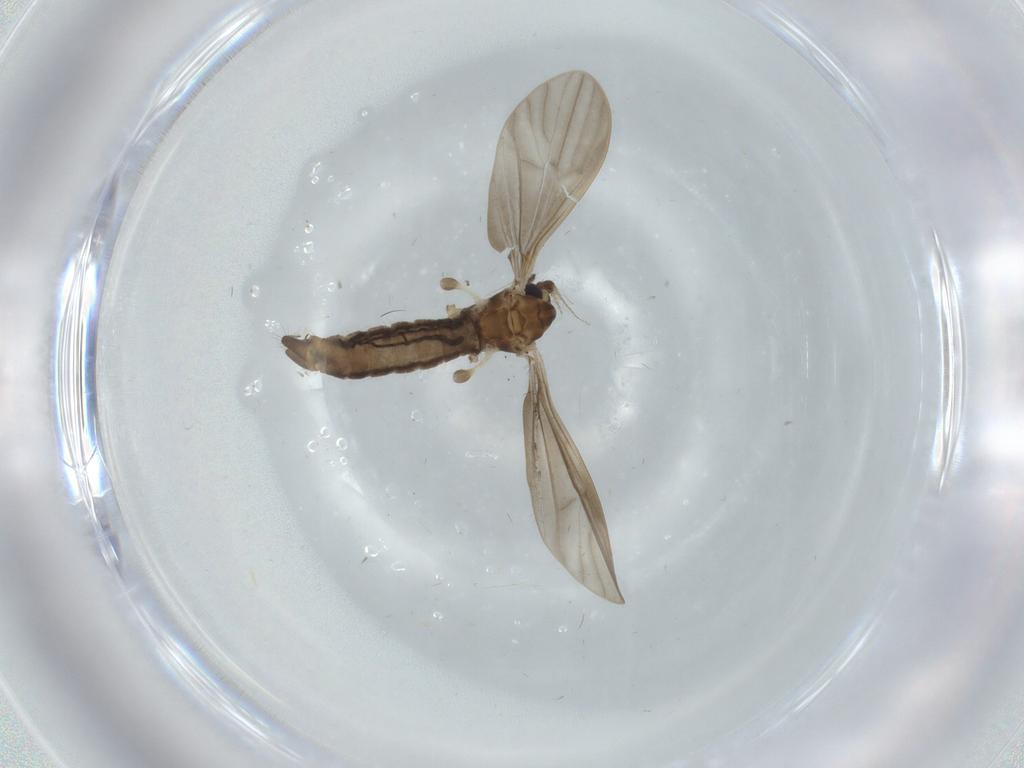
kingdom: Animalia
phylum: Arthropoda
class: Insecta
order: Diptera
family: Limoniidae
